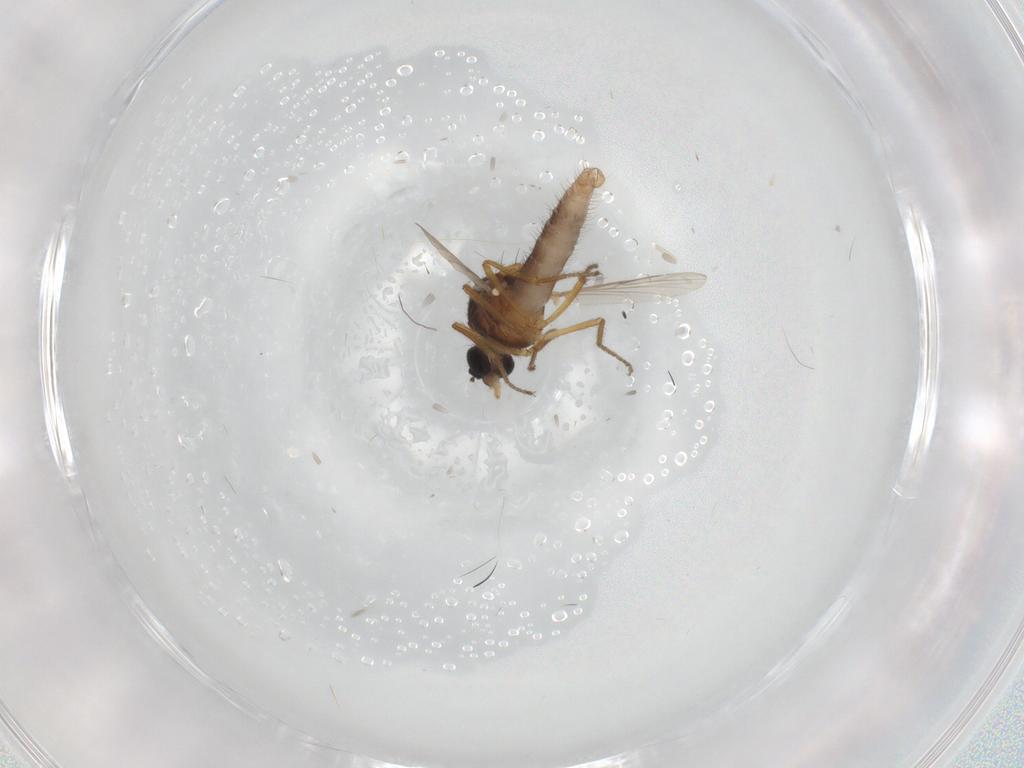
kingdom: Animalia
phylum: Arthropoda
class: Insecta
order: Diptera
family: Ceratopogonidae
